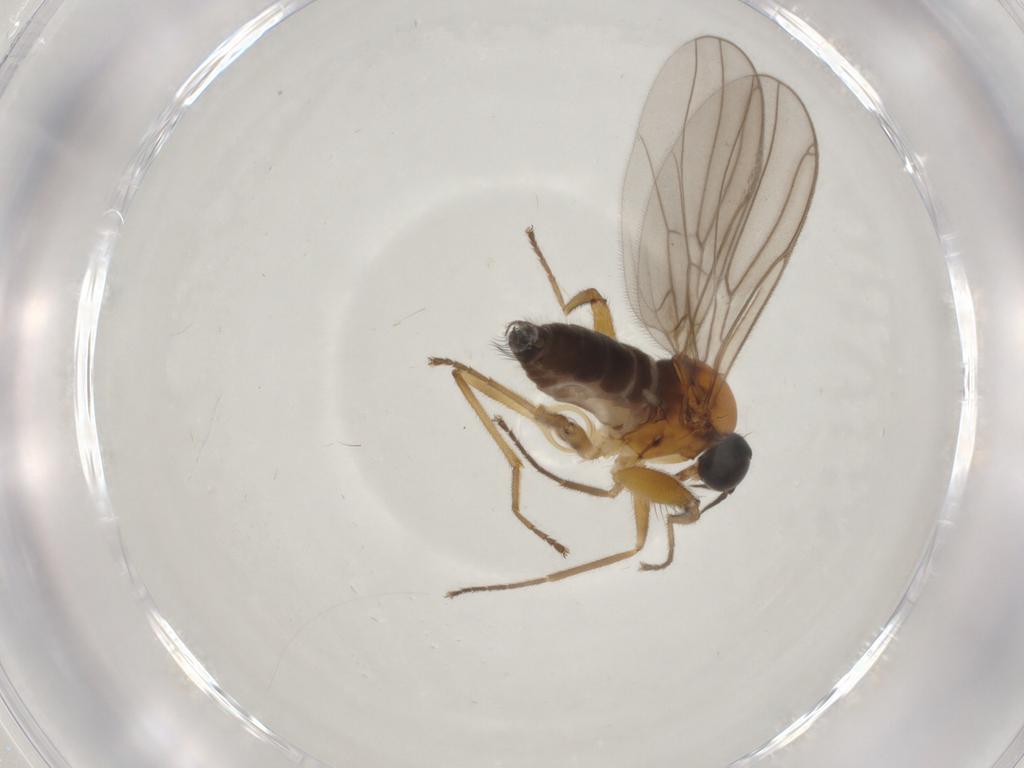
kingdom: Animalia
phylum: Arthropoda
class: Insecta
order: Diptera
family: Hybotidae
